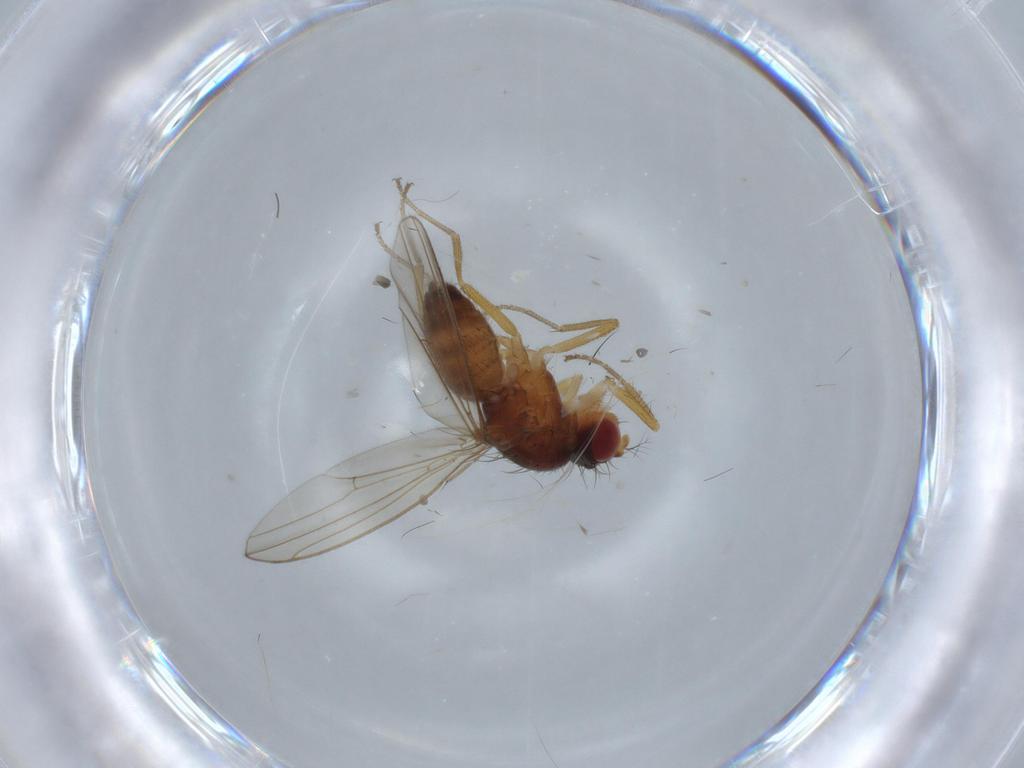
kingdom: Animalia
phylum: Arthropoda
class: Insecta
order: Diptera
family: Drosophilidae
